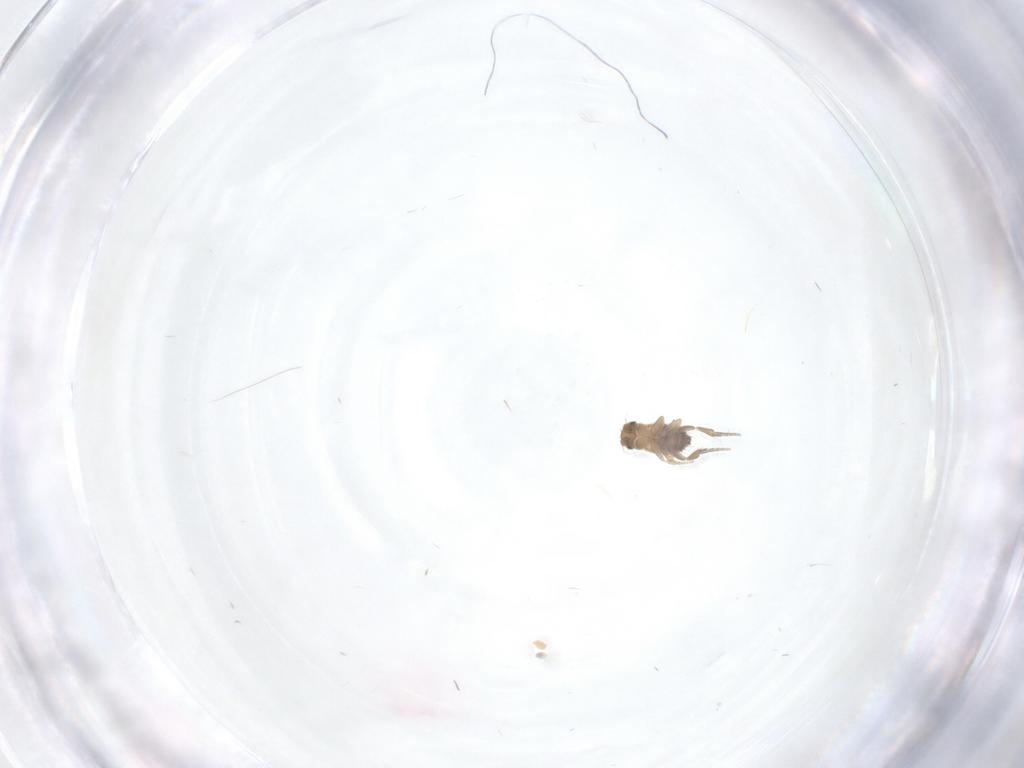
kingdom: Animalia
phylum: Arthropoda
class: Insecta
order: Diptera
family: Phoridae
